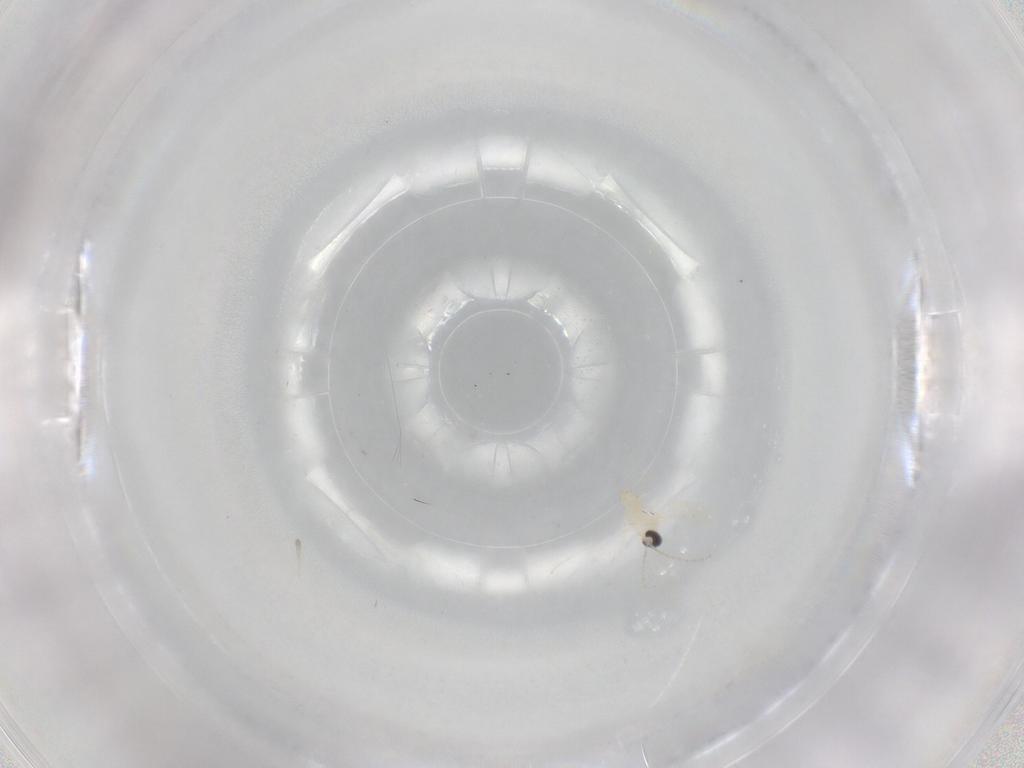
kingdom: Animalia
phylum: Arthropoda
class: Insecta
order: Diptera
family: Cecidomyiidae
